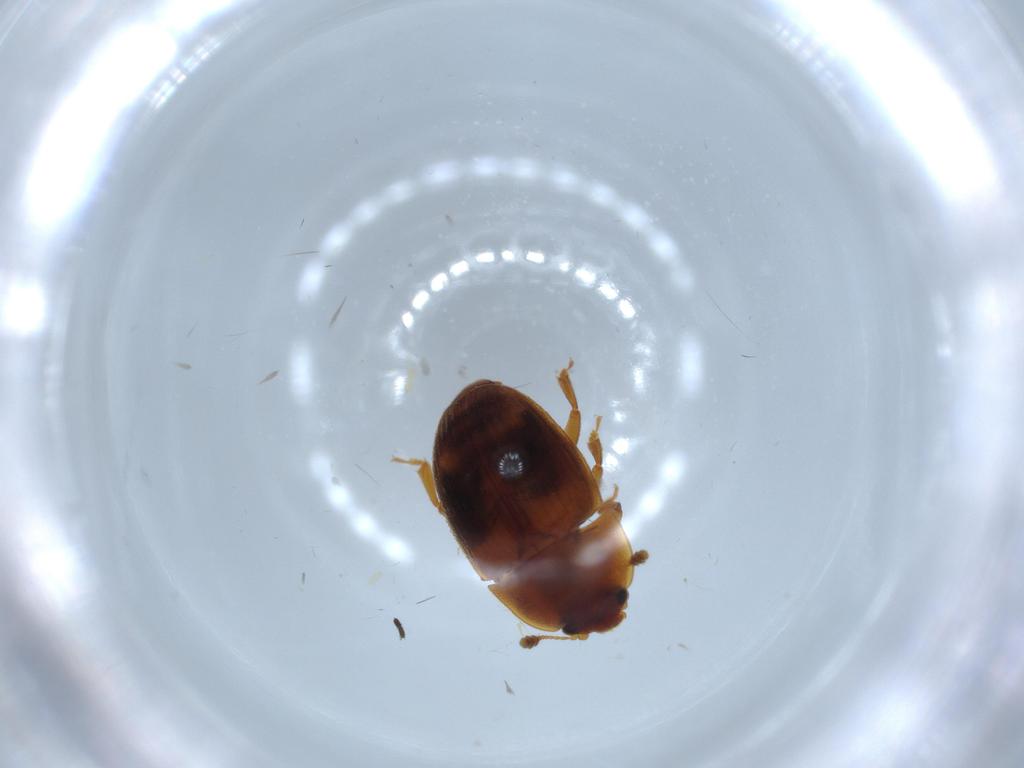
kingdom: Animalia
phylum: Arthropoda
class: Insecta
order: Coleoptera
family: Nitidulidae
